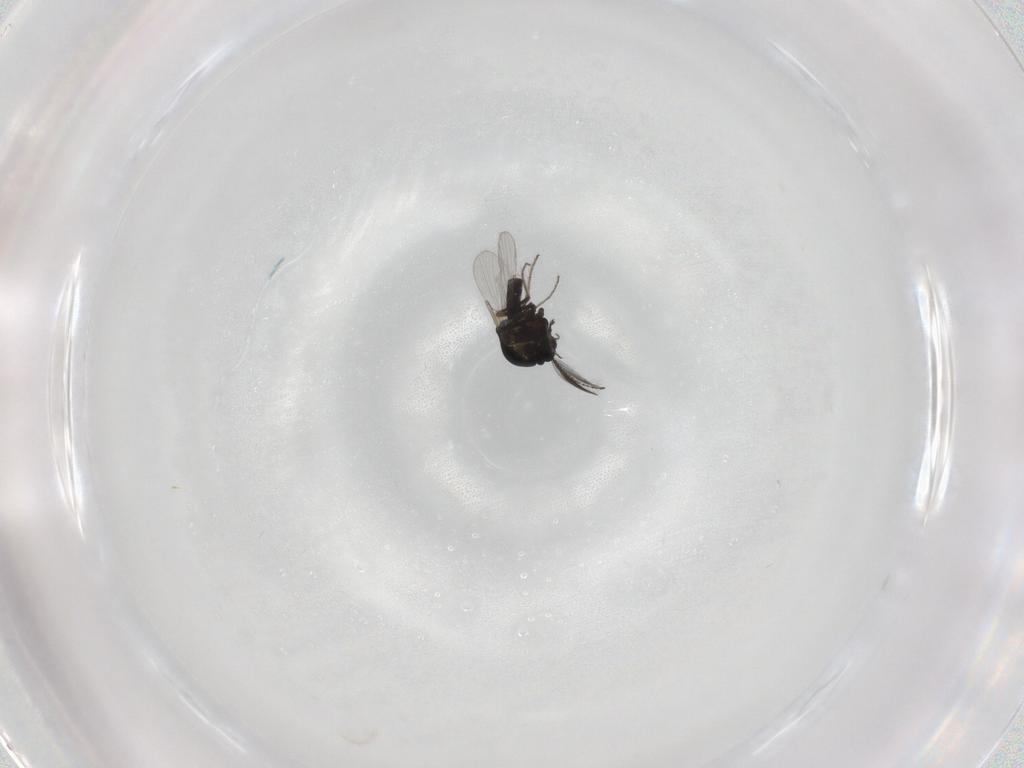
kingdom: Animalia
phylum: Arthropoda
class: Insecta
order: Diptera
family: Ceratopogonidae
